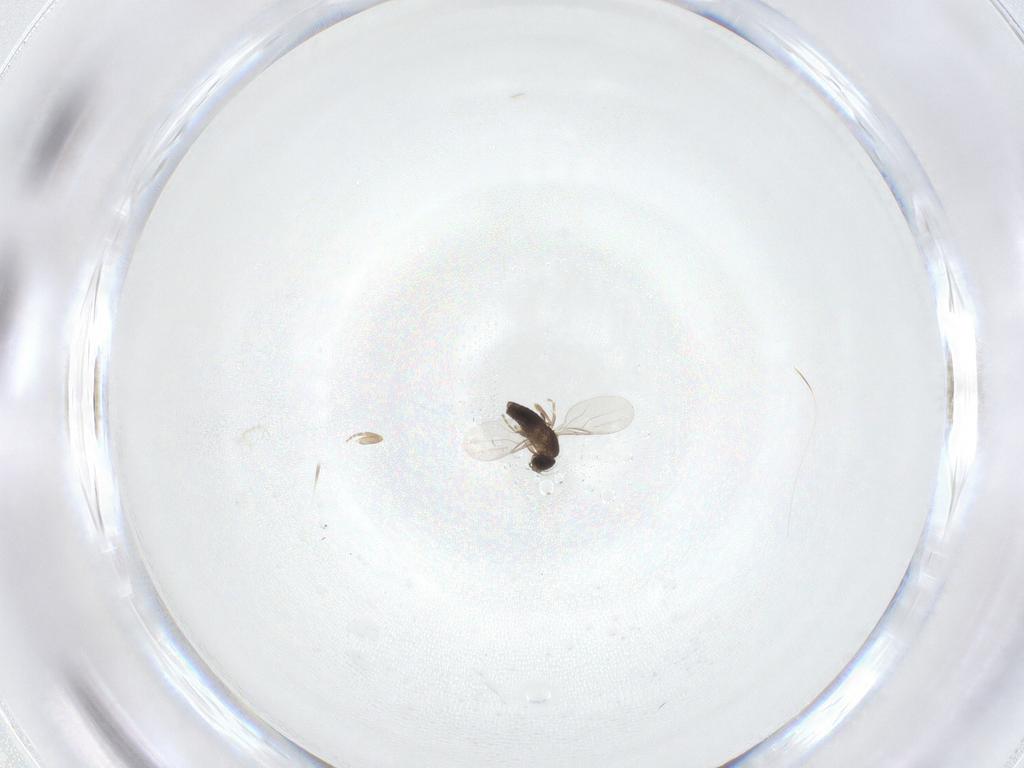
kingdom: Animalia
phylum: Arthropoda
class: Insecta
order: Diptera
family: Phoridae
